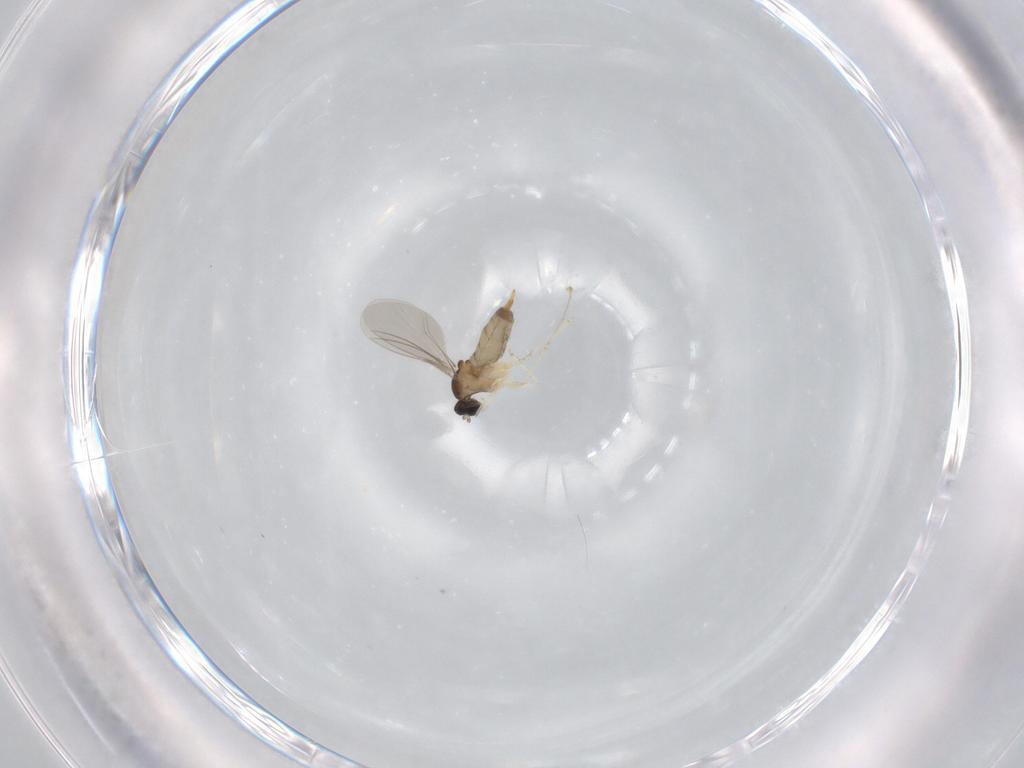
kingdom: Animalia
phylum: Arthropoda
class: Insecta
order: Diptera
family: Cecidomyiidae
